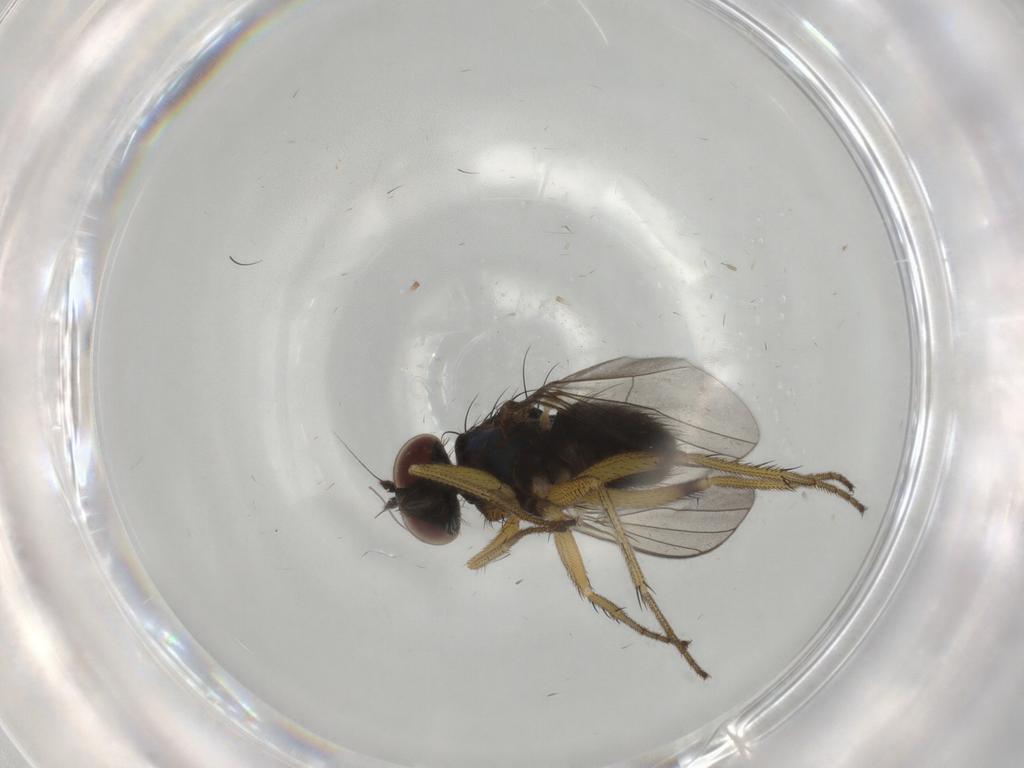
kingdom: Animalia
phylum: Arthropoda
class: Insecta
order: Diptera
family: Dolichopodidae
